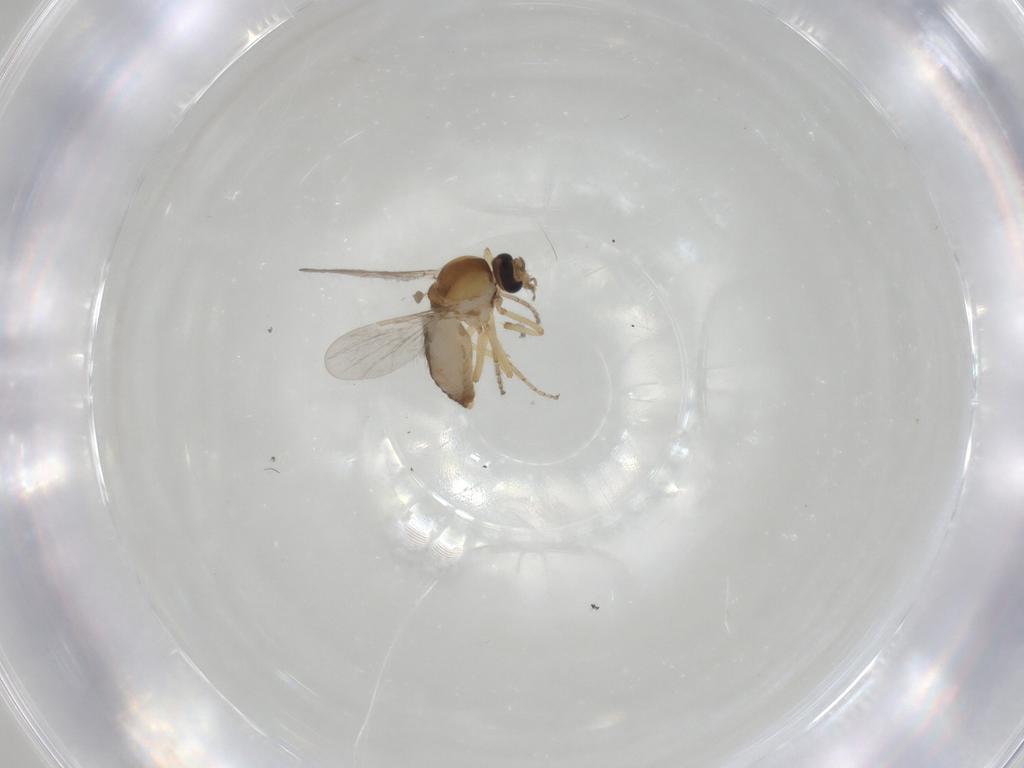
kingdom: Animalia
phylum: Arthropoda
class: Insecta
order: Diptera
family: Ceratopogonidae
